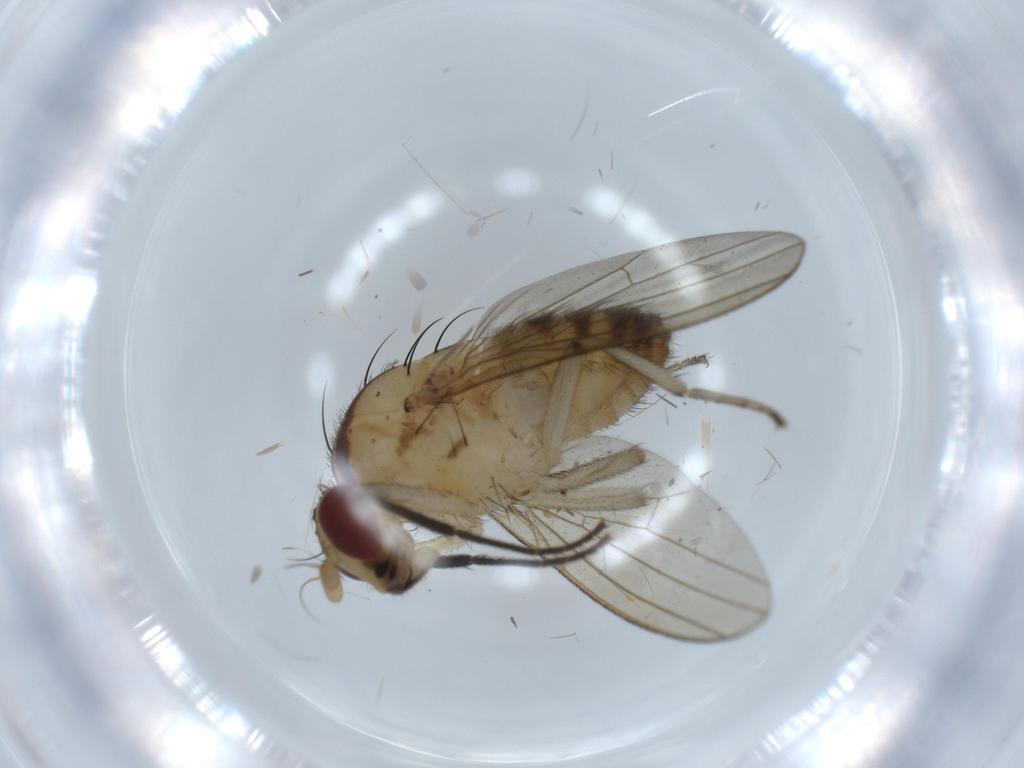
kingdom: Animalia
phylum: Arthropoda
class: Insecta
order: Diptera
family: Lauxaniidae
